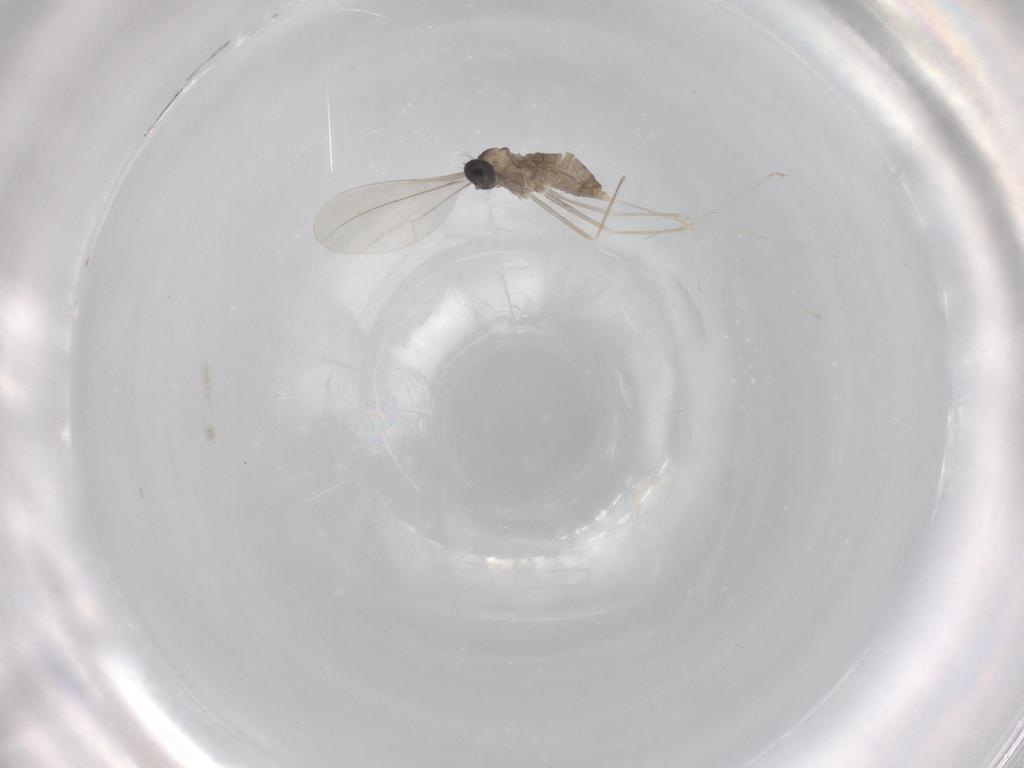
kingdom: Animalia
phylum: Arthropoda
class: Insecta
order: Diptera
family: Cecidomyiidae
